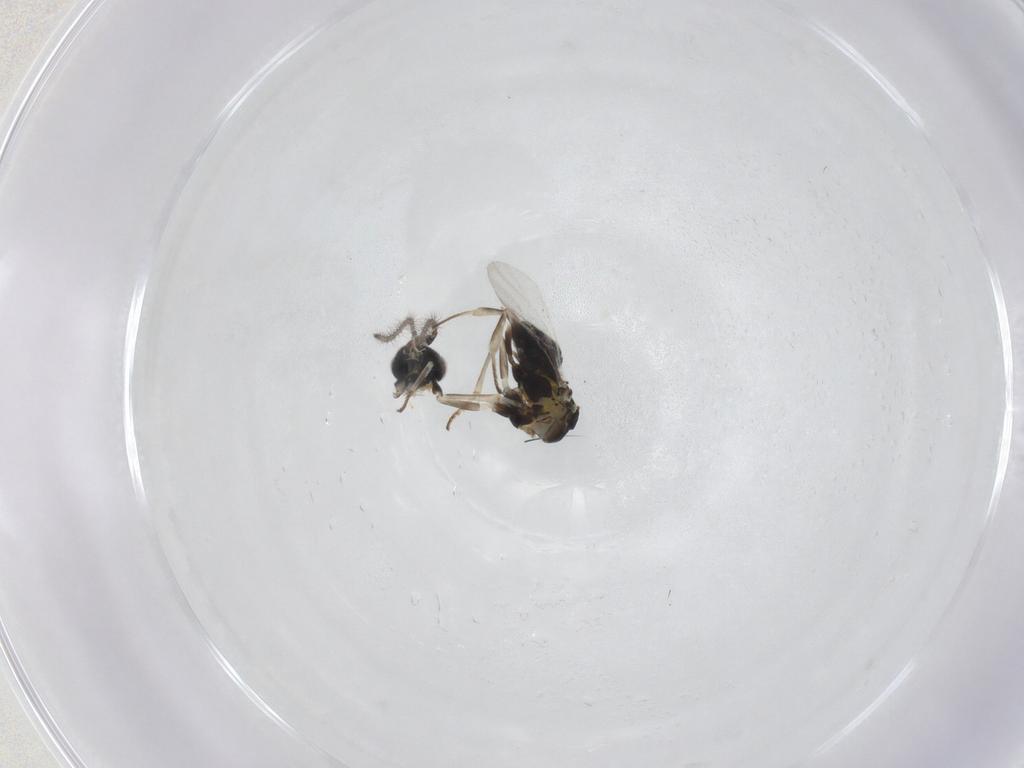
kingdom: Animalia
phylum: Arthropoda
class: Insecta
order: Hymenoptera
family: Trichogrammatidae
